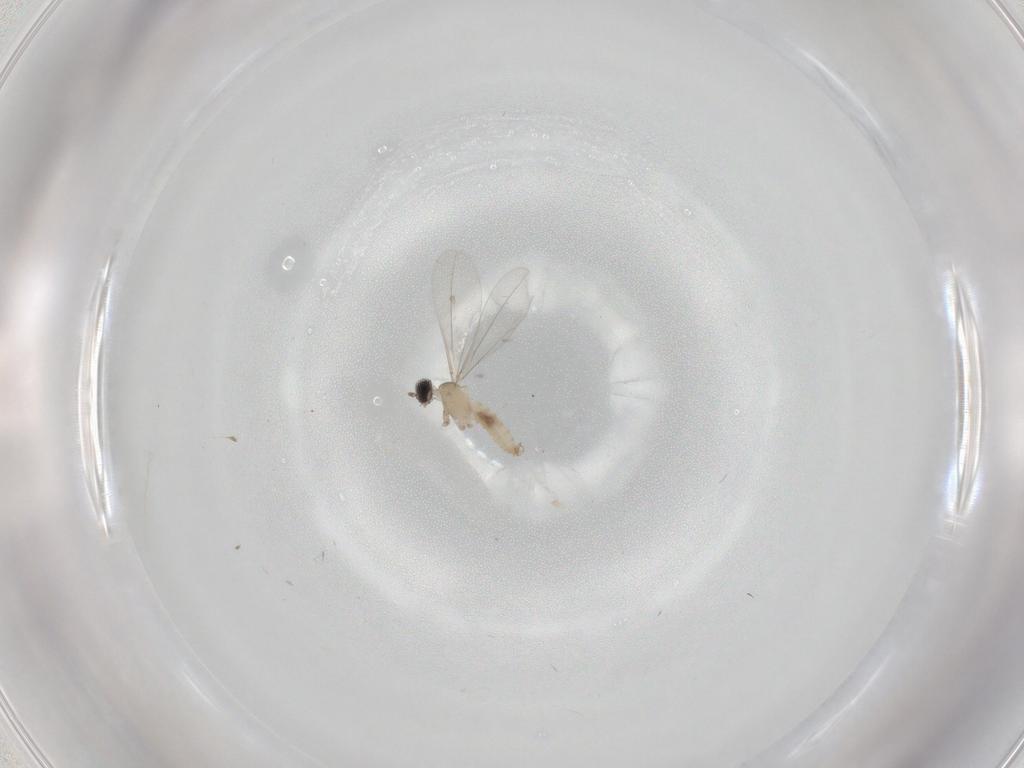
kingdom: Animalia
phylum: Arthropoda
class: Insecta
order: Diptera
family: Cecidomyiidae
